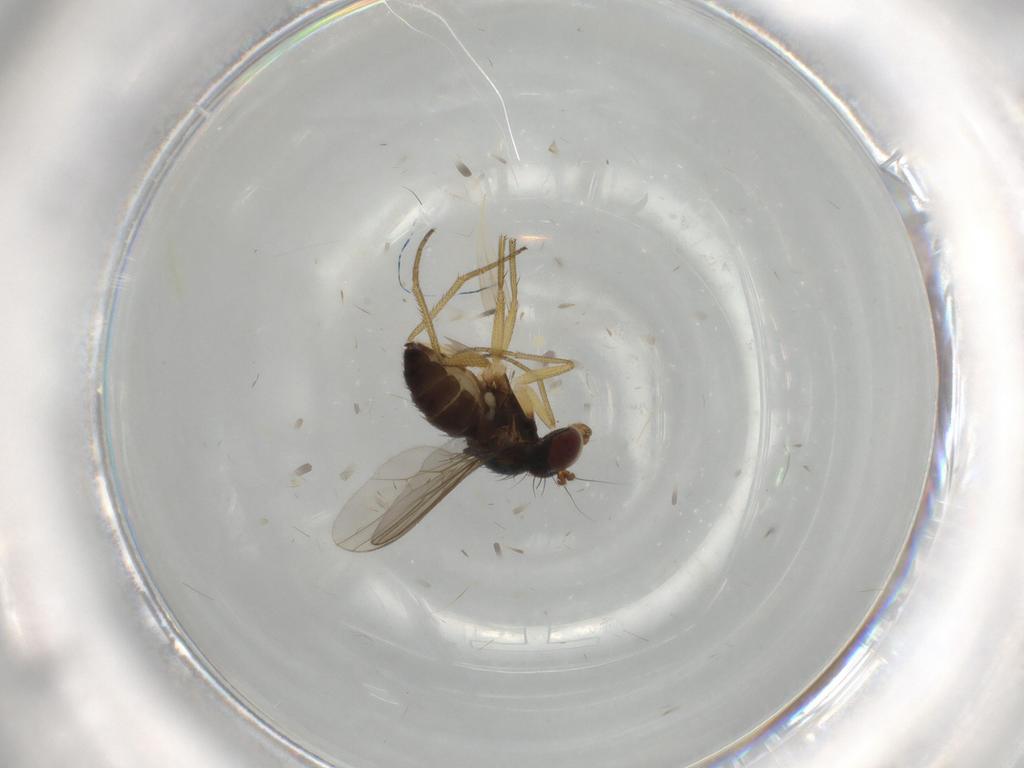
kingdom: Animalia
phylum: Arthropoda
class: Insecta
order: Diptera
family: Dolichopodidae
